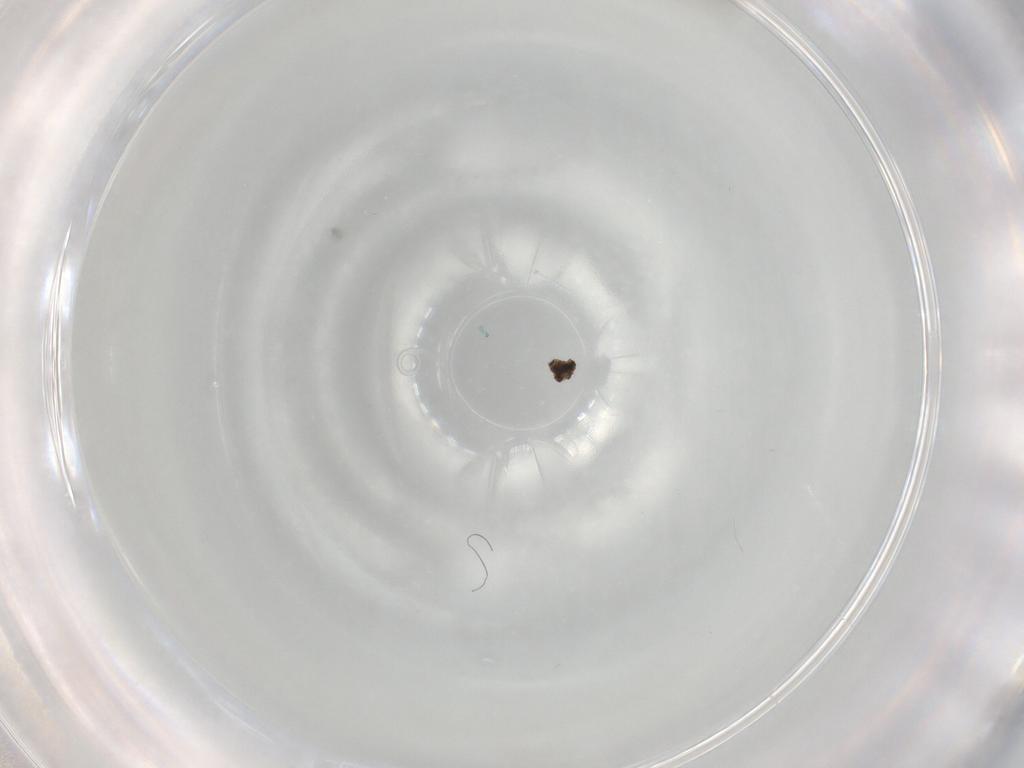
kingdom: Animalia
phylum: Arthropoda
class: Insecta
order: Diptera
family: Chironomidae
